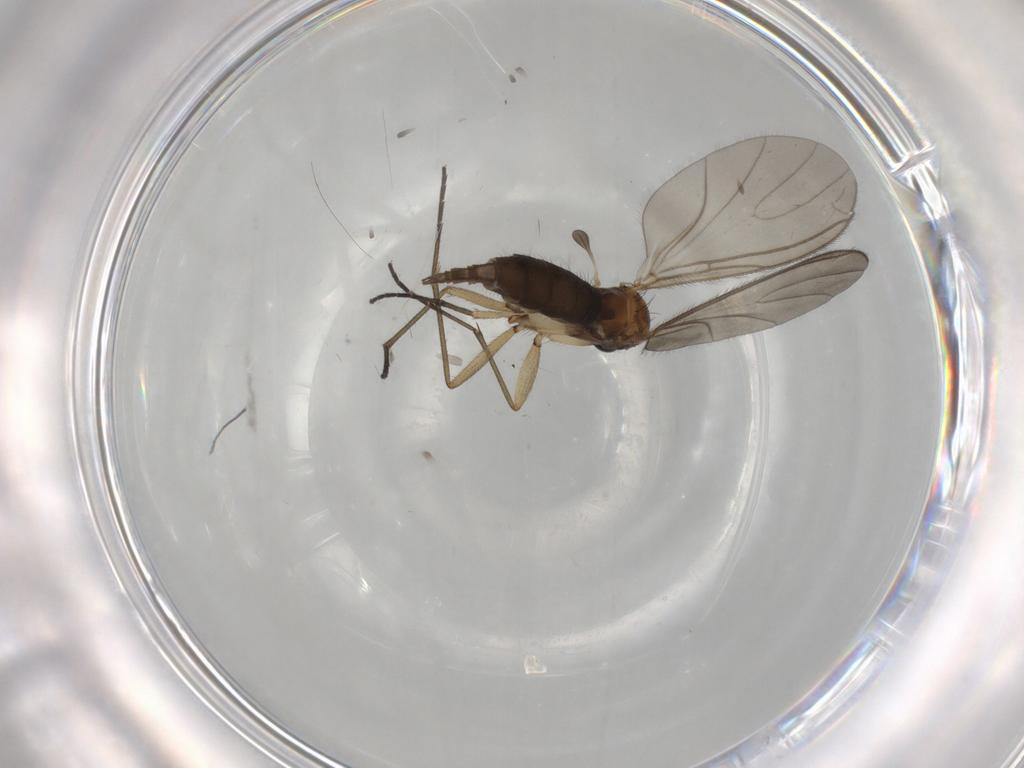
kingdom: Animalia
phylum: Arthropoda
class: Insecta
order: Diptera
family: Sciaridae
